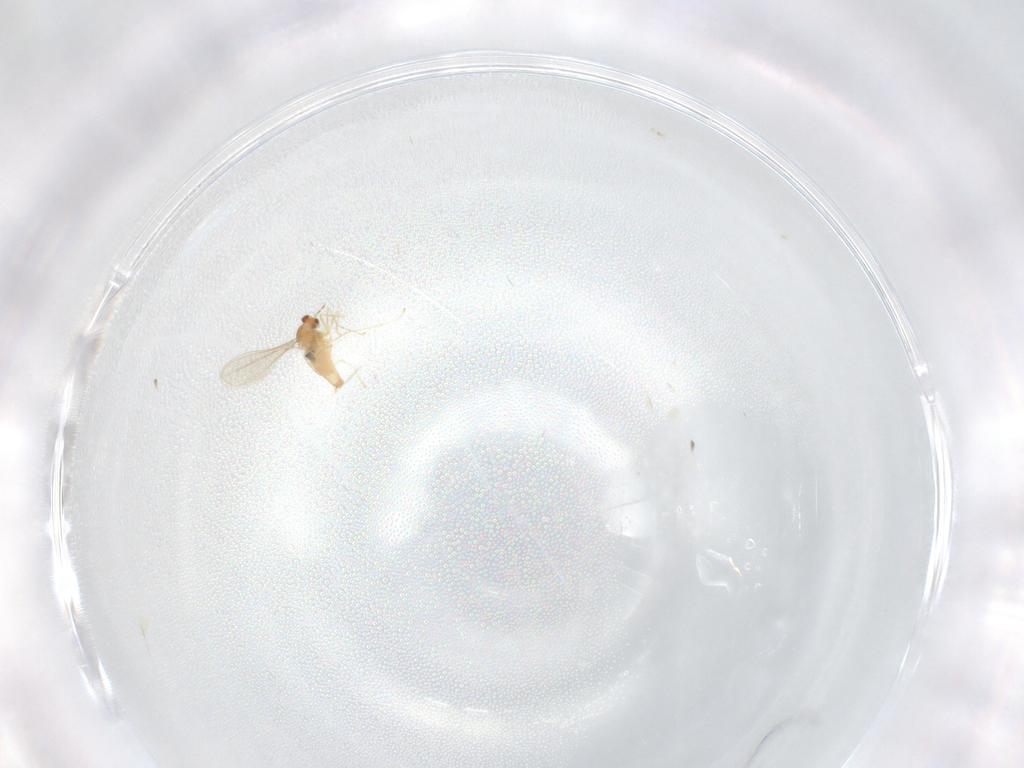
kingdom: Animalia
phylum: Arthropoda
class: Insecta
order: Diptera
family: Cecidomyiidae
